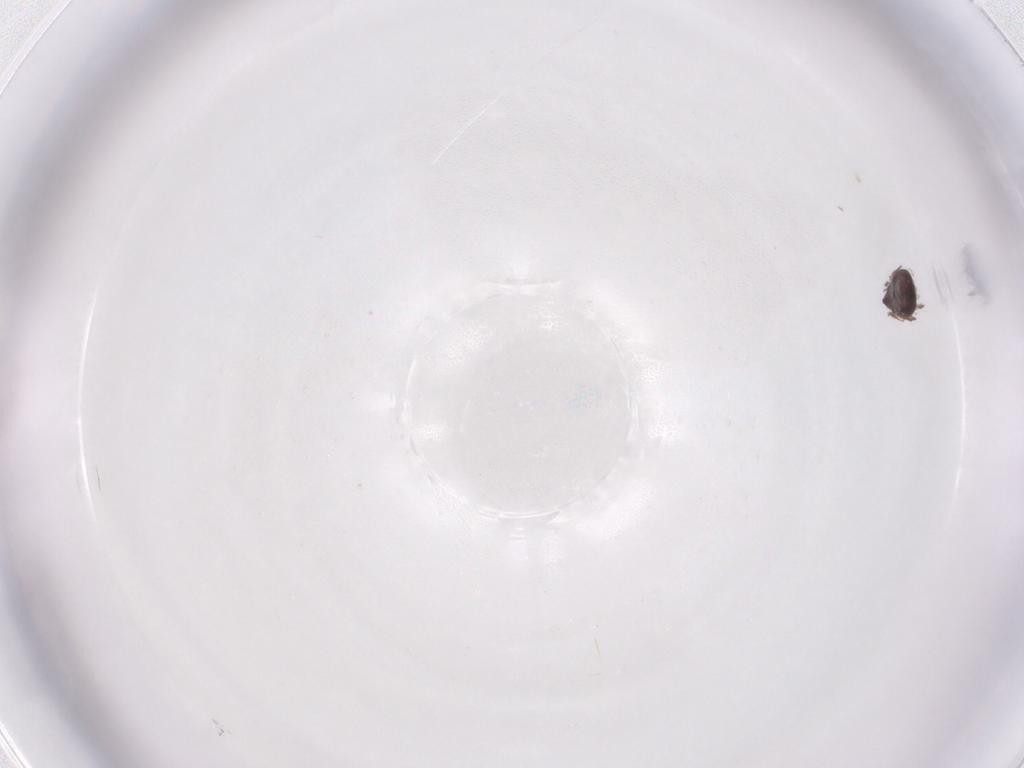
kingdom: Animalia
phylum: Arthropoda
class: Arachnida
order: Sarcoptiformes
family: Scheloribatidae
